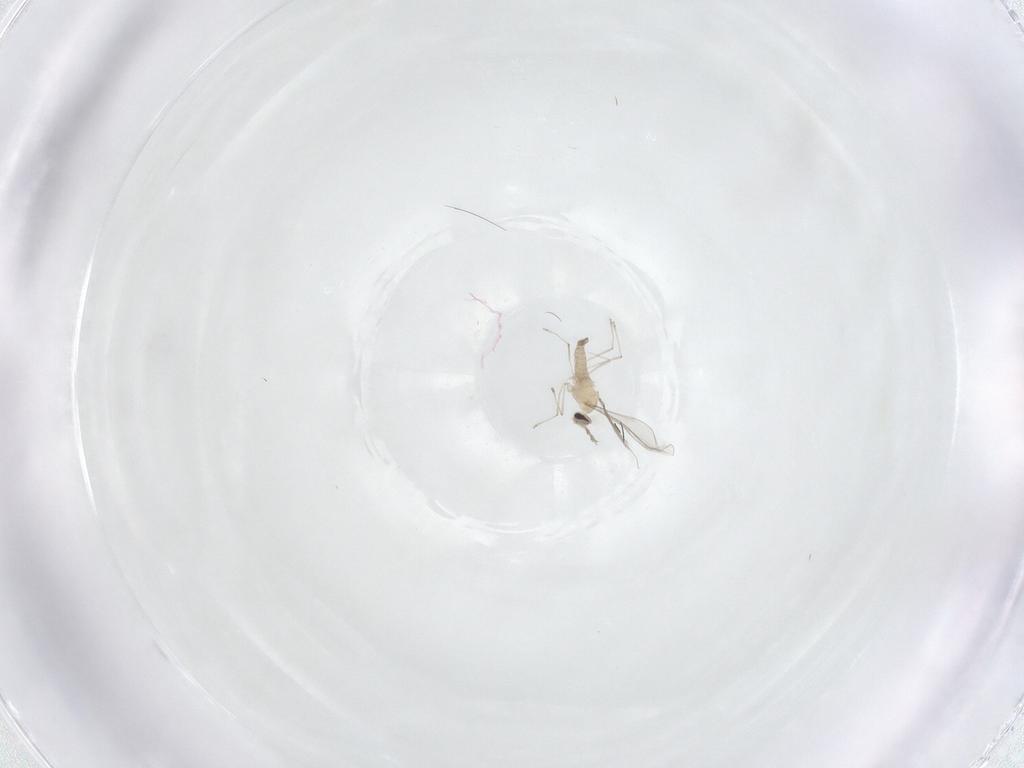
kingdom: Animalia
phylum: Arthropoda
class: Insecta
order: Diptera
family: Tabanidae
